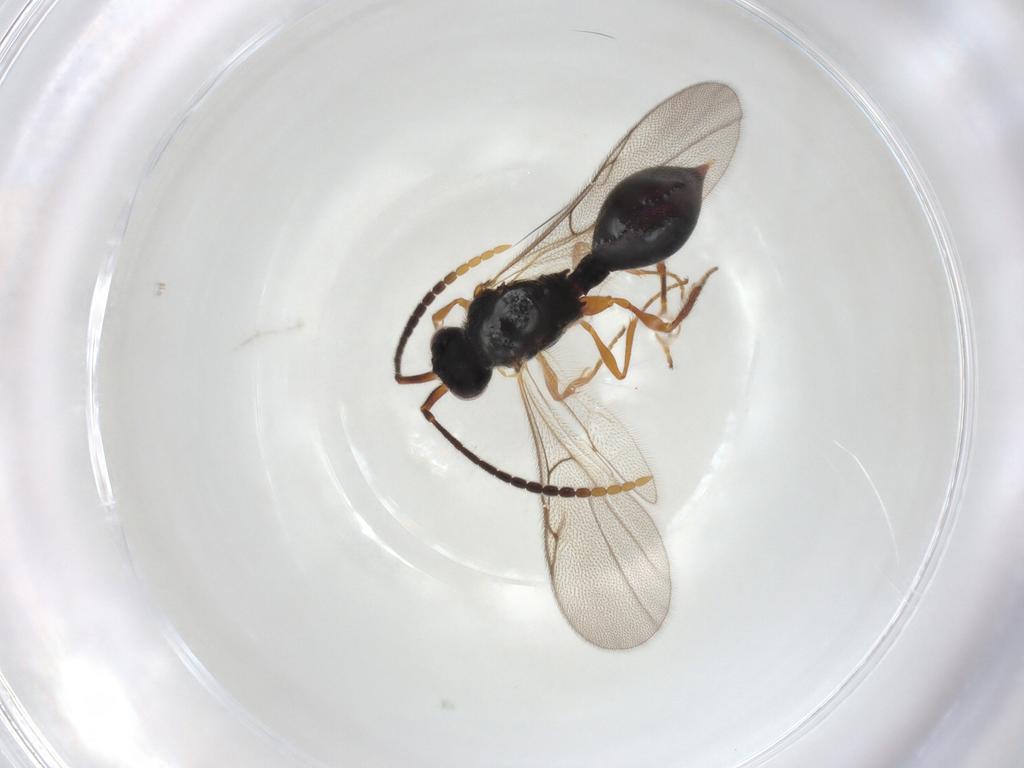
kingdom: Animalia
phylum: Arthropoda
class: Insecta
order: Hymenoptera
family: Diapriidae
